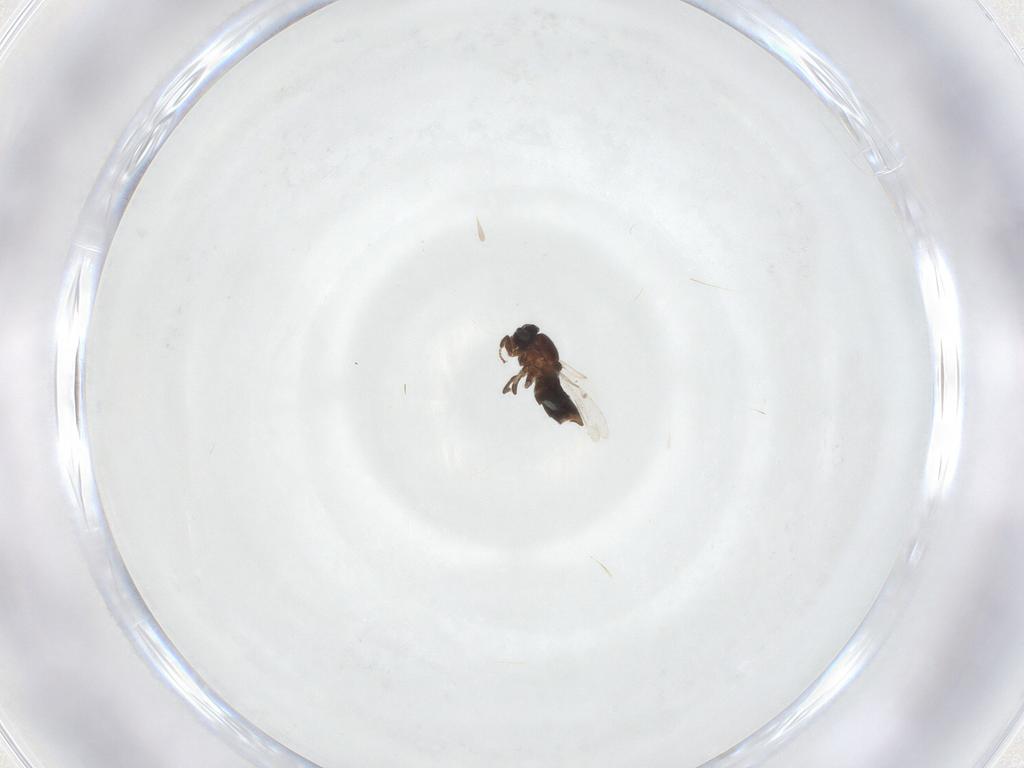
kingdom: Animalia
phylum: Arthropoda
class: Insecta
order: Diptera
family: Scatopsidae
